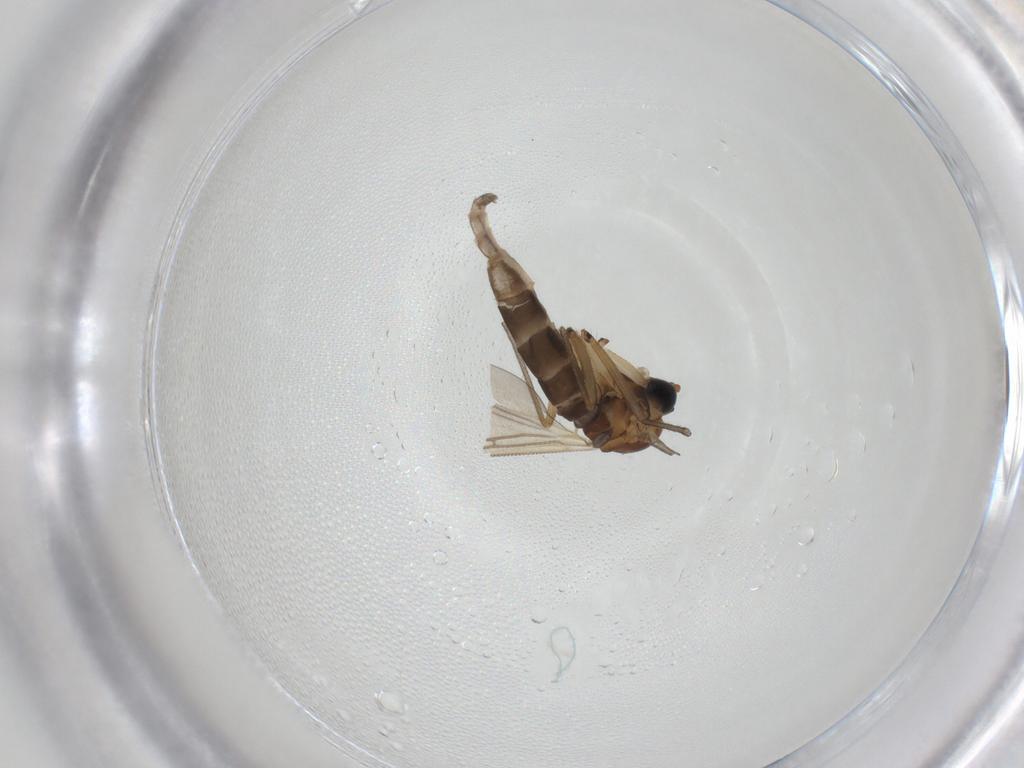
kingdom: Animalia
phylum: Arthropoda
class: Insecta
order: Diptera
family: Sciaridae
